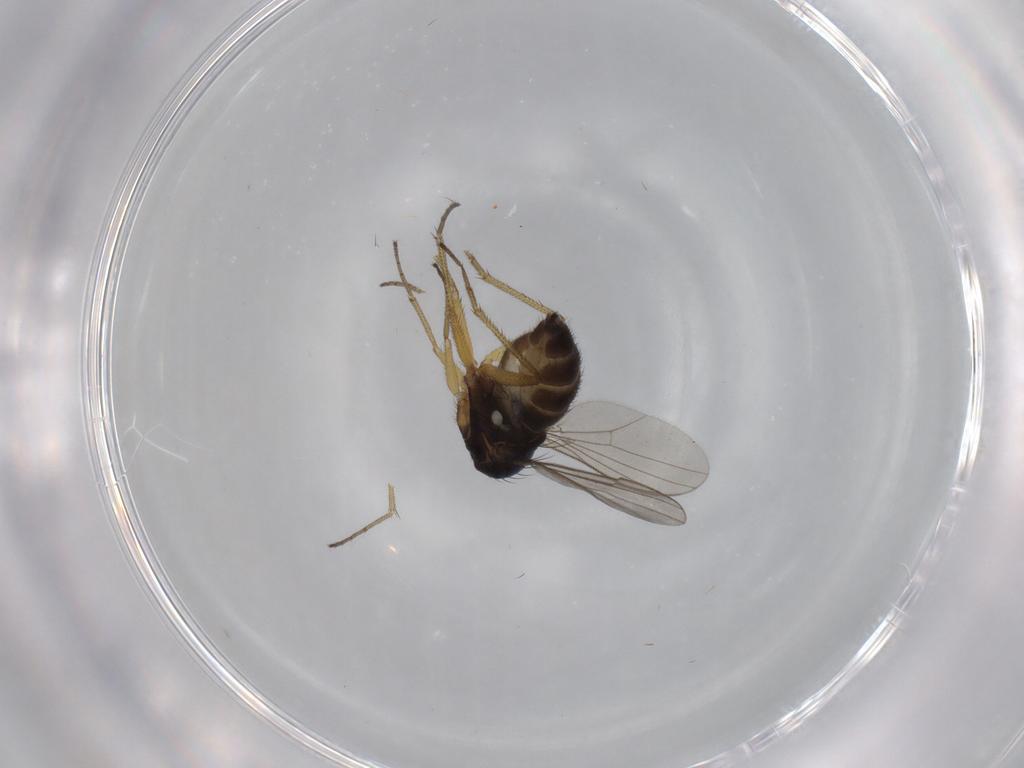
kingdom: Animalia
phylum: Arthropoda
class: Insecta
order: Diptera
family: Dolichopodidae
